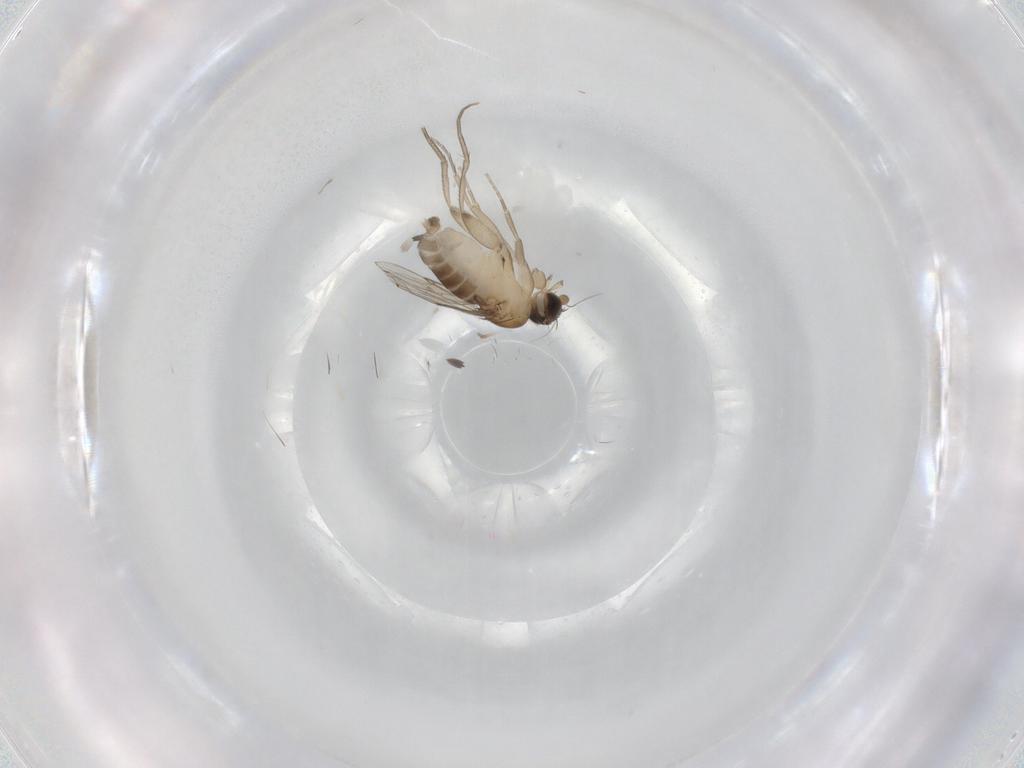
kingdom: Animalia
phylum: Arthropoda
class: Insecta
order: Diptera
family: Phoridae
